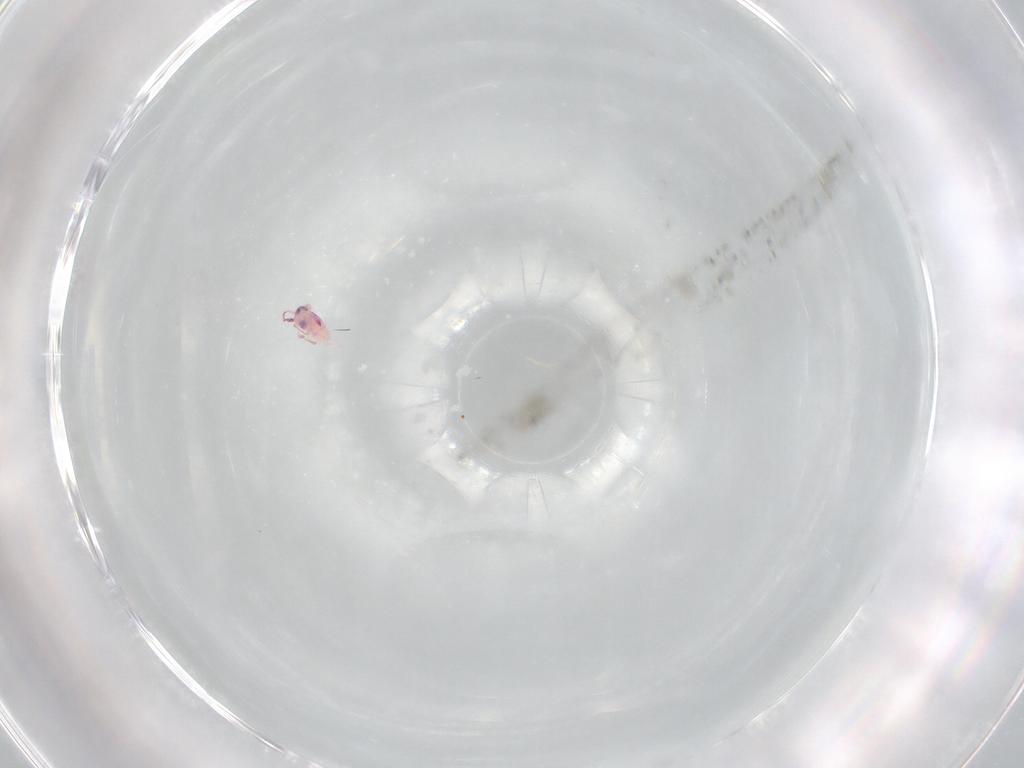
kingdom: Animalia
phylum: Arthropoda
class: Collembola
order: Symphypleona
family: Sminthurididae
